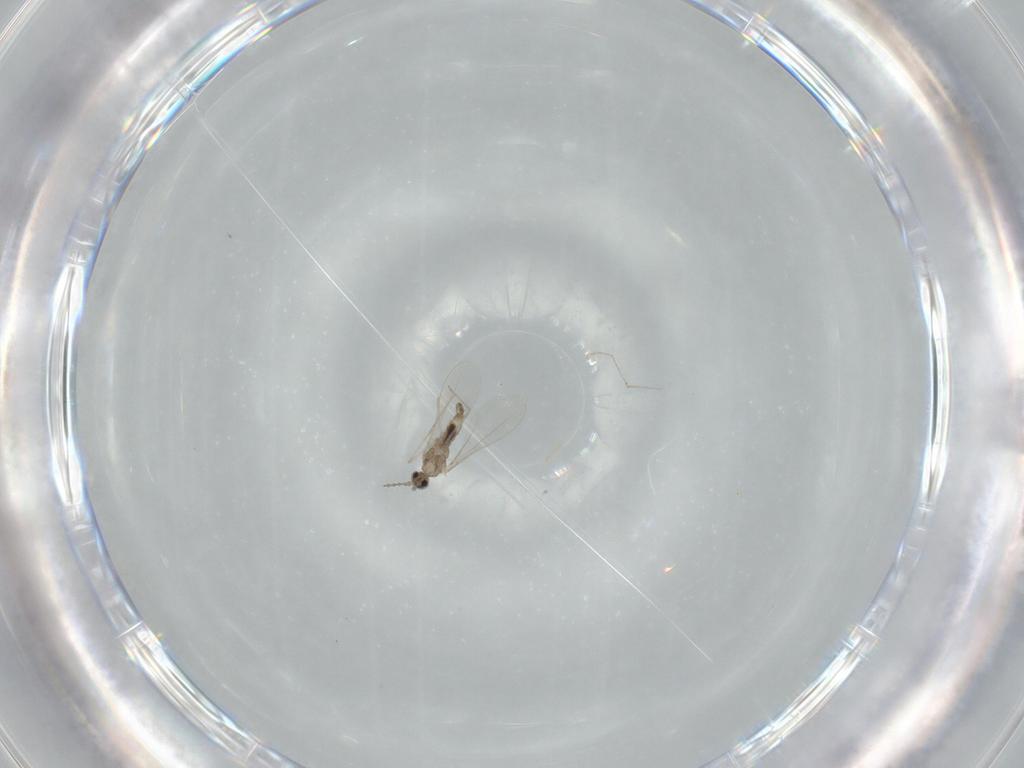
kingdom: Animalia
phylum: Arthropoda
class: Insecta
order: Diptera
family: Cecidomyiidae
